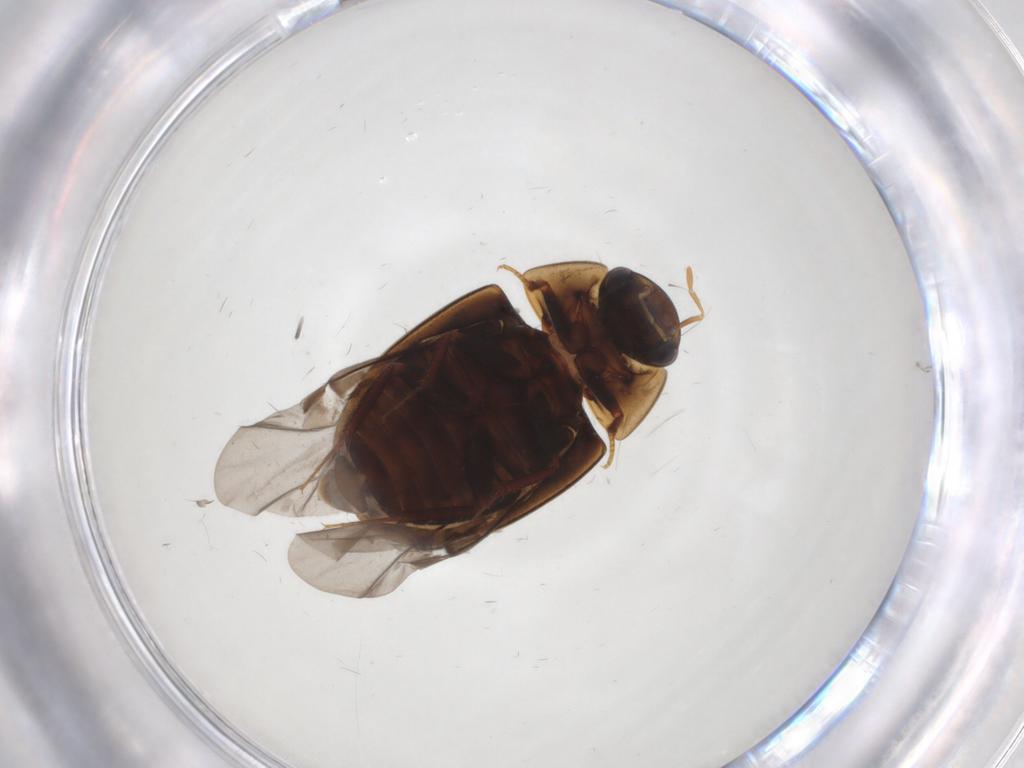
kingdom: Animalia
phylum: Arthropoda
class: Insecta
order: Coleoptera
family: Hydrophilidae
